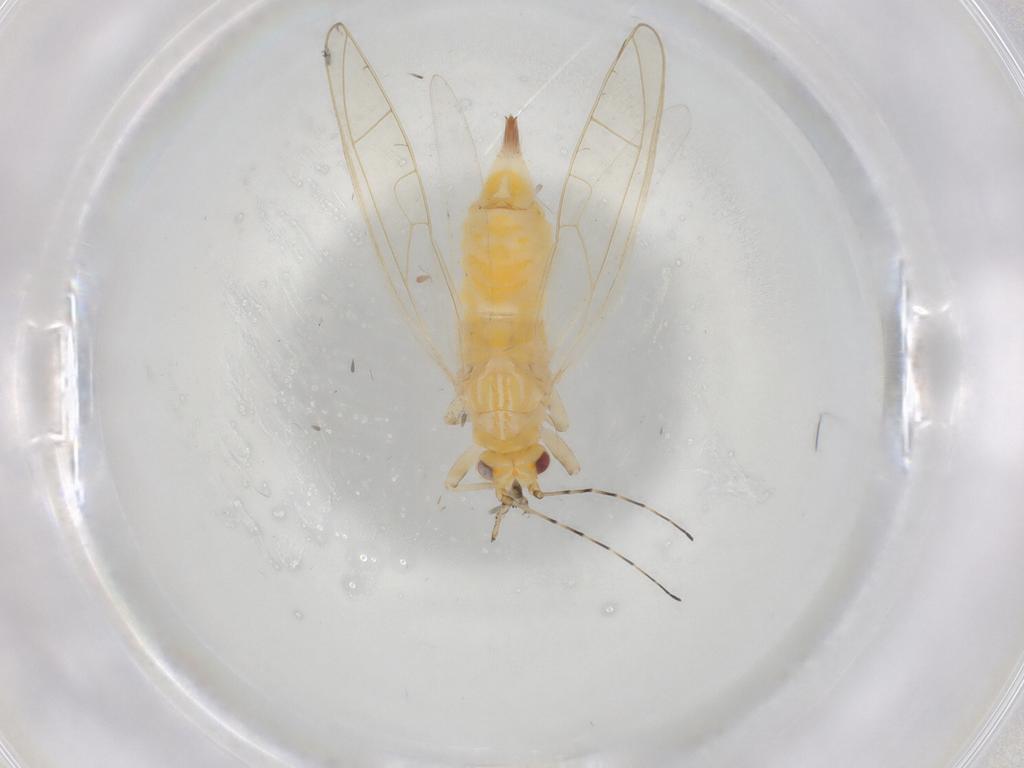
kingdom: Animalia
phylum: Arthropoda
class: Insecta
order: Hemiptera
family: Carsidaridae
